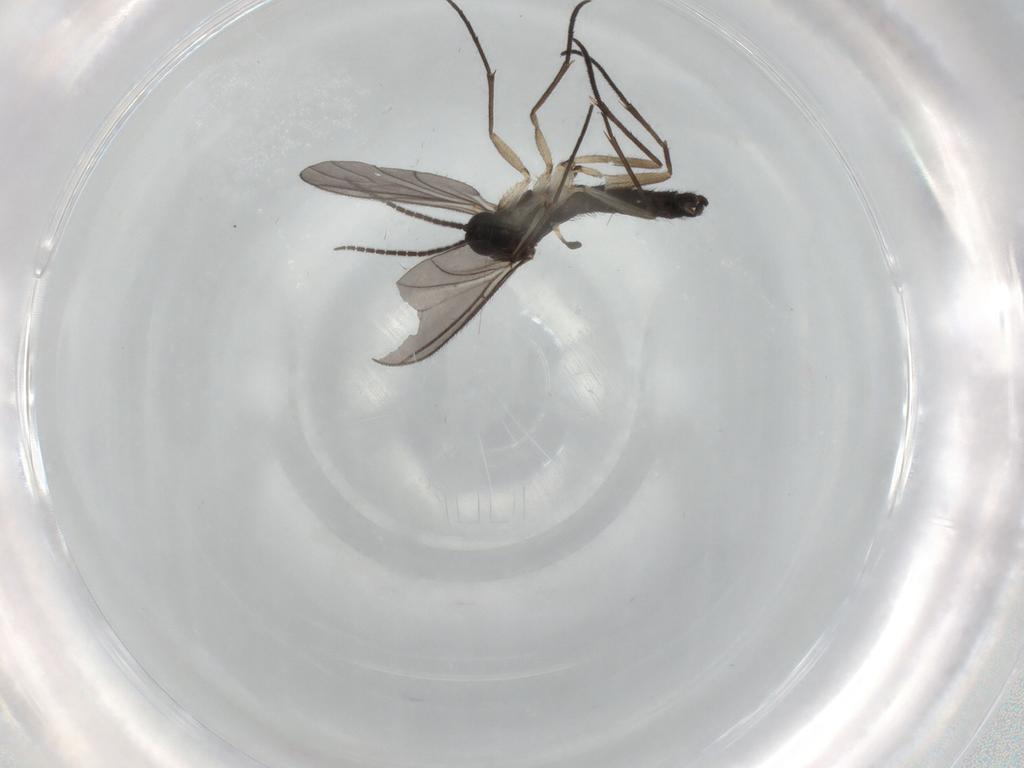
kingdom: Animalia
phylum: Arthropoda
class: Insecta
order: Diptera
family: Sciaridae
